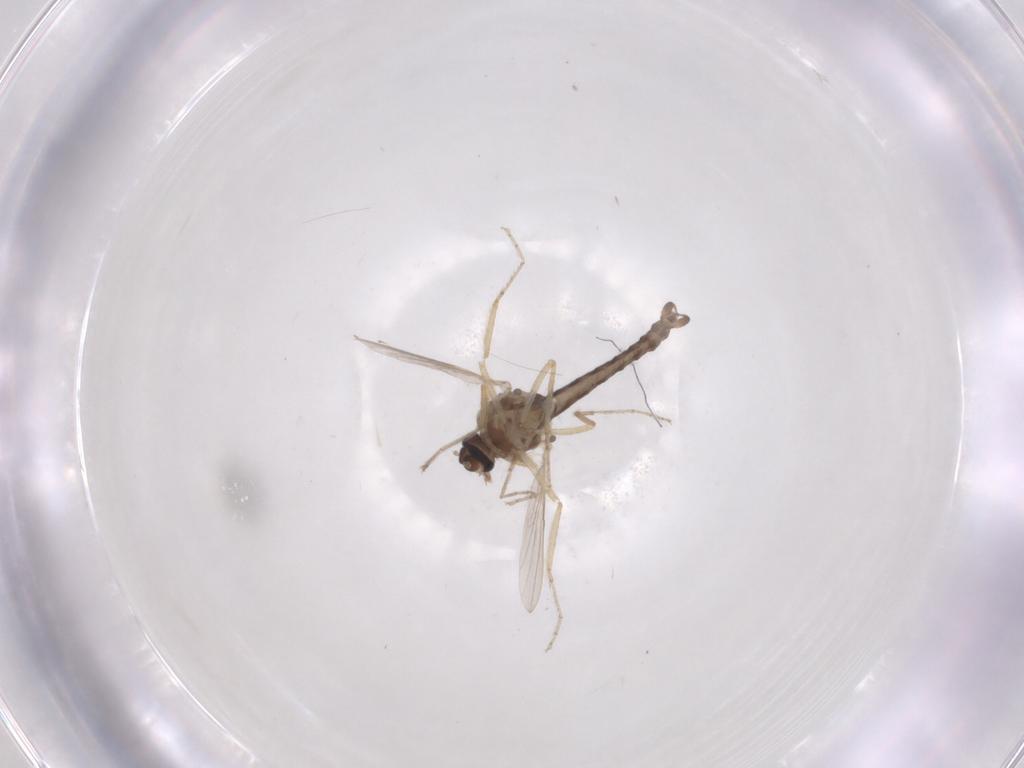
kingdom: Animalia
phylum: Arthropoda
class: Insecta
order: Diptera
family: Ceratopogonidae
